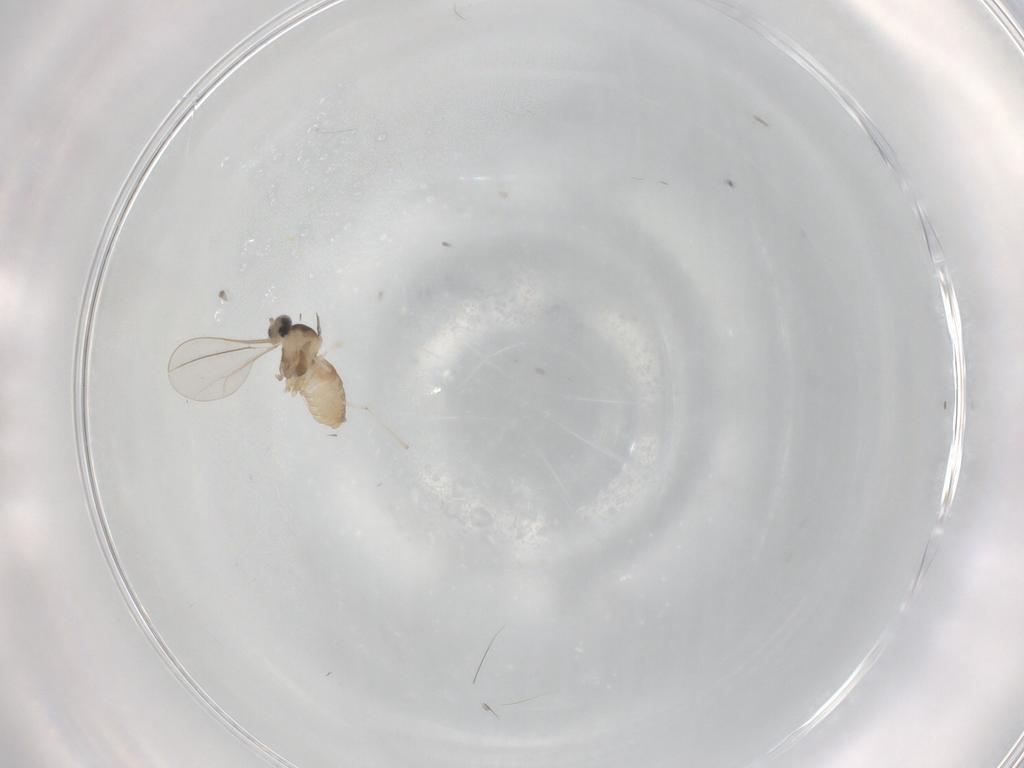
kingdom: Animalia
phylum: Arthropoda
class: Insecta
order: Diptera
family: Cecidomyiidae
